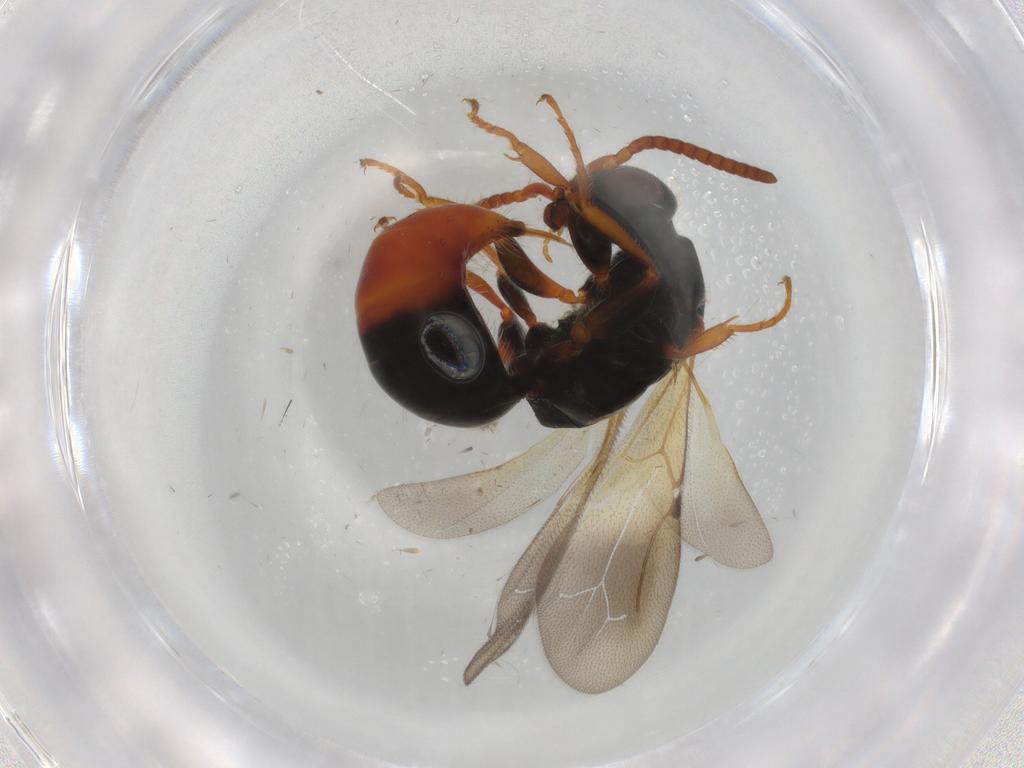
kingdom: Animalia
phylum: Arthropoda
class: Insecta
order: Hymenoptera
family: Bethylidae
